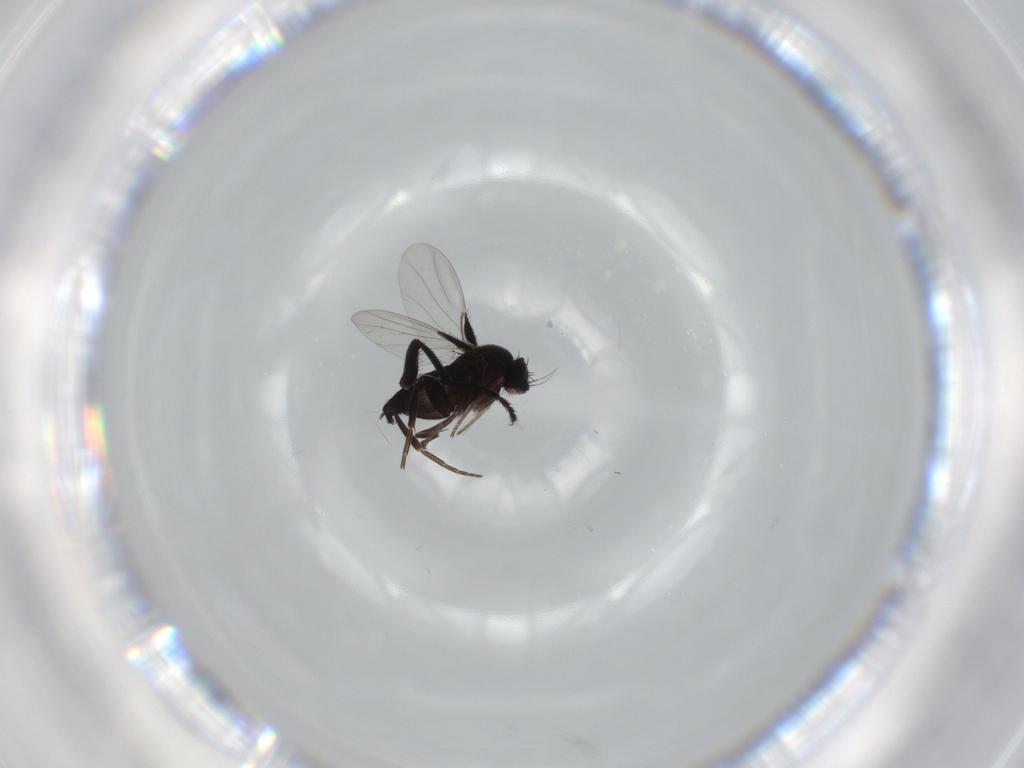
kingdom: Animalia
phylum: Arthropoda
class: Insecta
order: Diptera
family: Milichiidae
